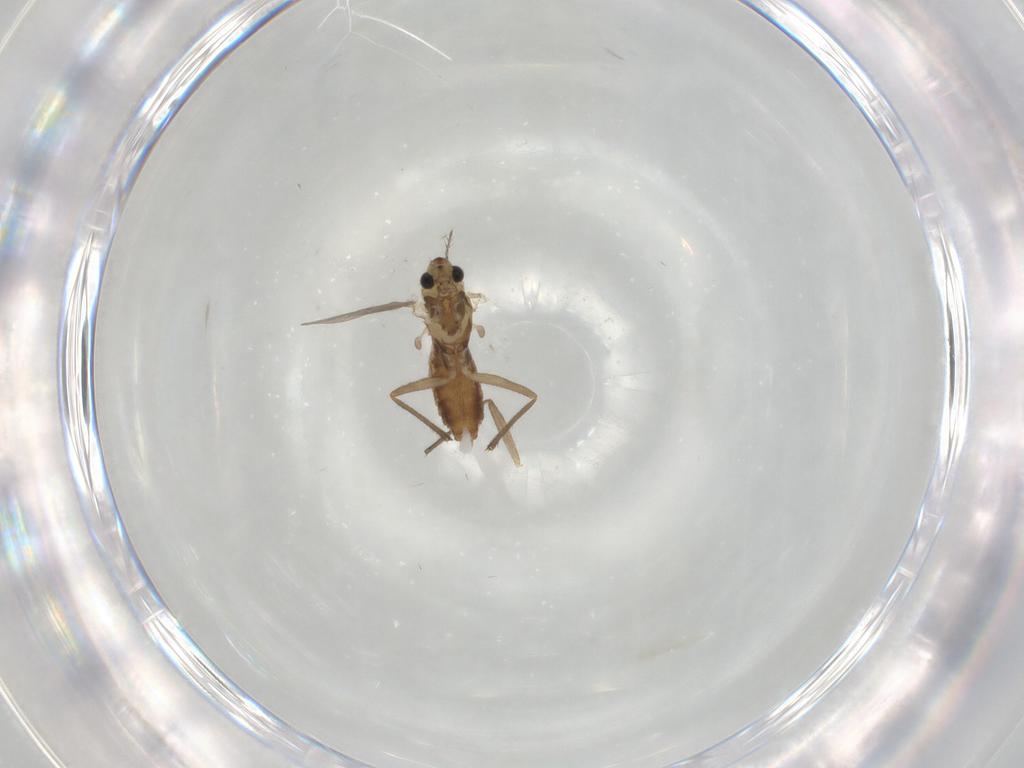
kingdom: Animalia
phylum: Arthropoda
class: Insecta
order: Diptera
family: Chironomidae
